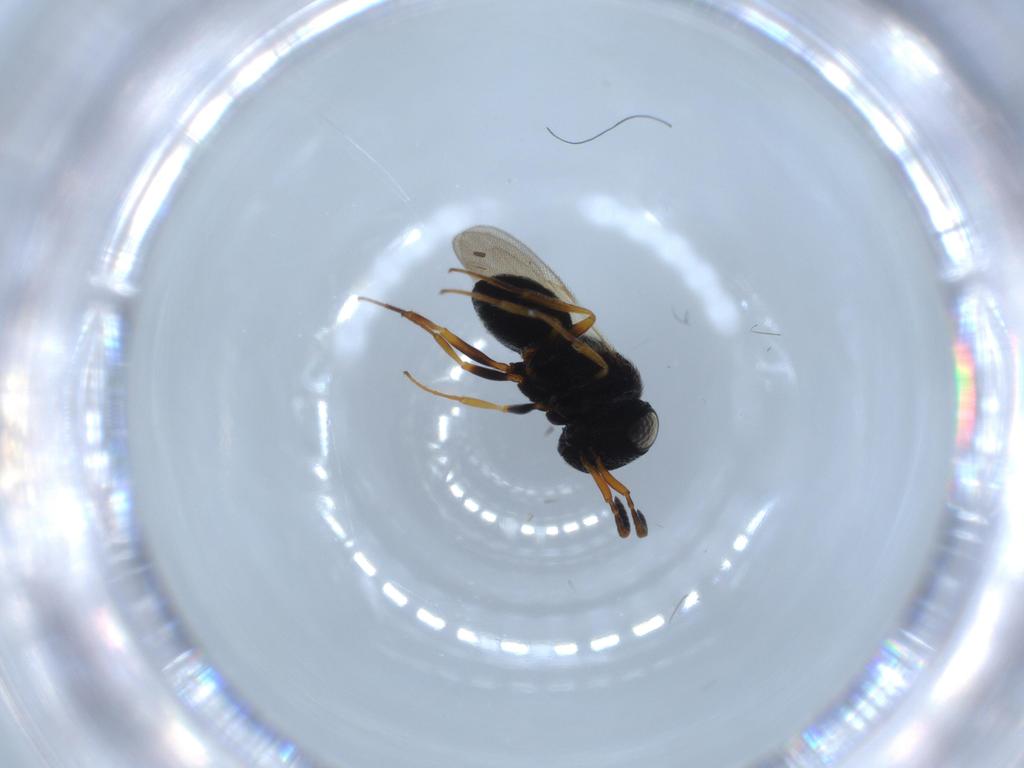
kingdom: Animalia
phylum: Arthropoda
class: Insecta
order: Hymenoptera
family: Scelionidae
